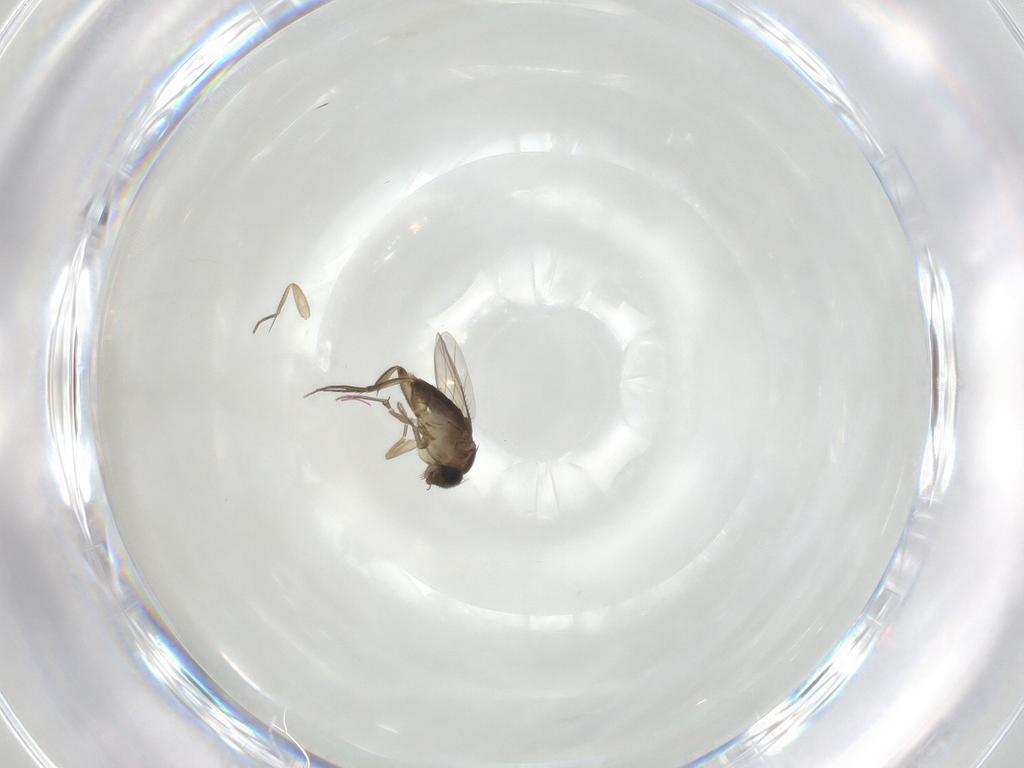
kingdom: Animalia
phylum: Arthropoda
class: Insecta
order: Diptera
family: Phoridae
